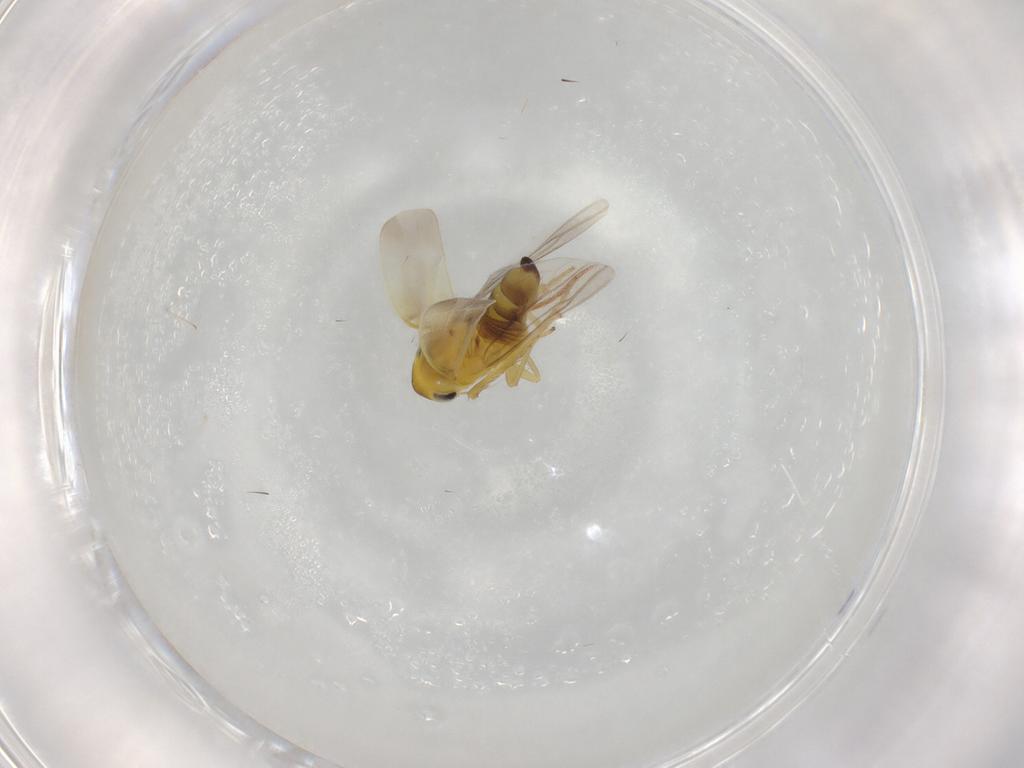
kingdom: Animalia
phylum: Arthropoda
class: Insecta
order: Hemiptera
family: Cicadellidae
